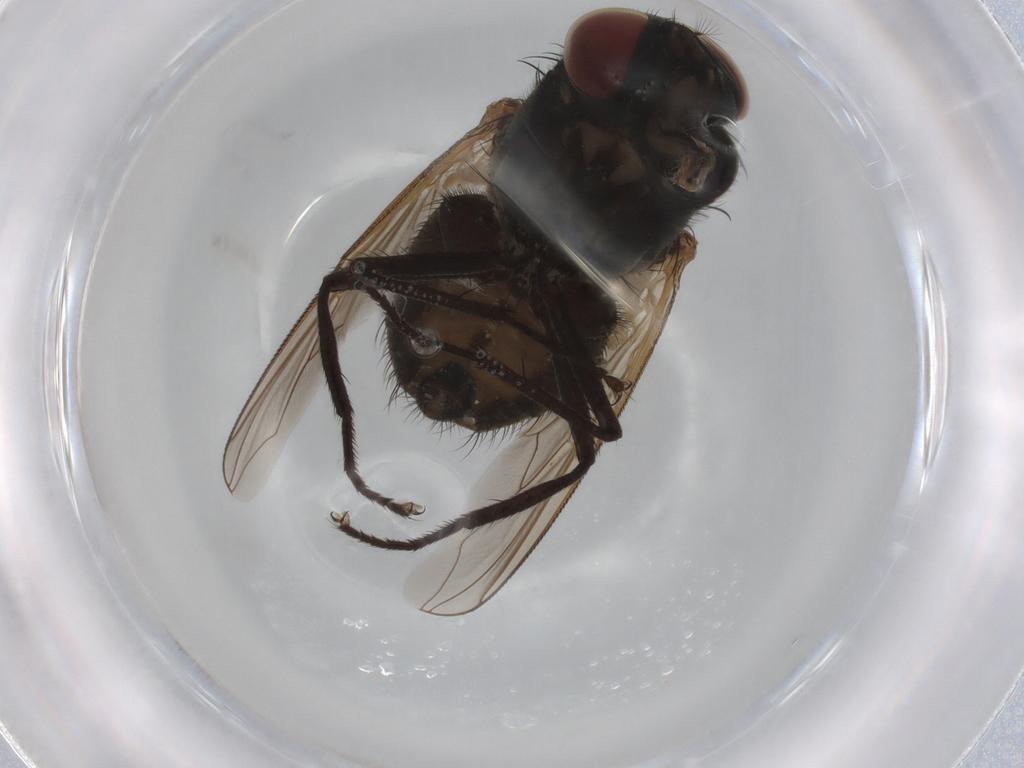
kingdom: Animalia
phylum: Arthropoda
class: Insecta
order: Diptera
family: Muscidae
